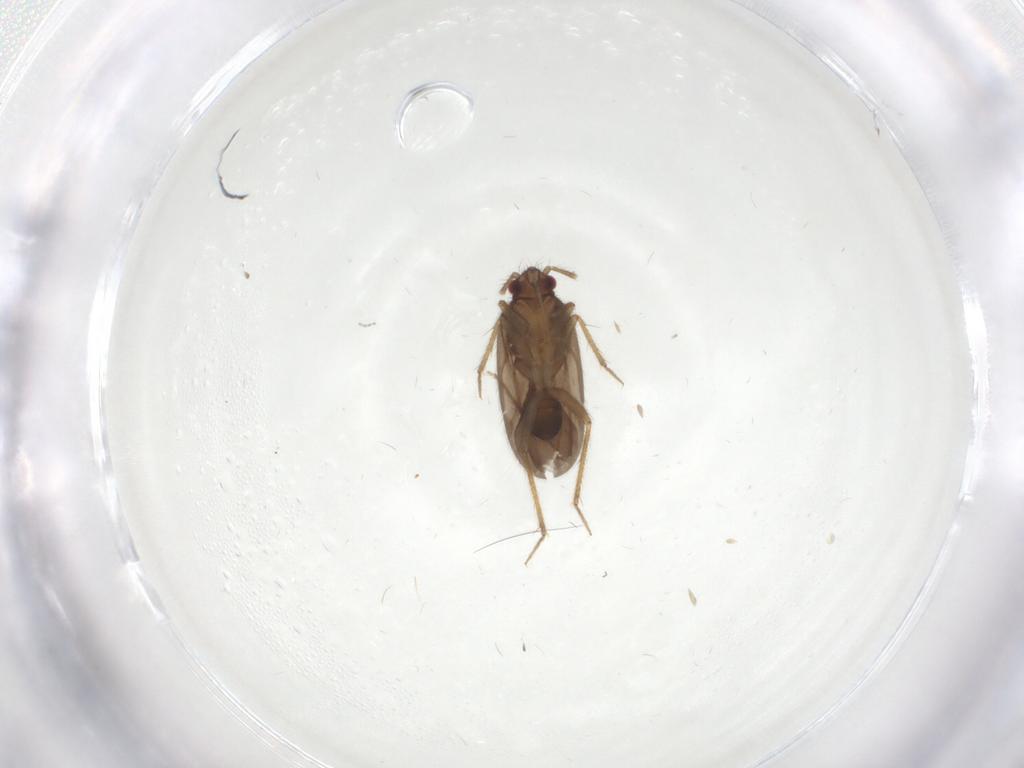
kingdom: Animalia
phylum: Arthropoda
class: Insecta
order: Hemiptera
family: Ceratocombidae
